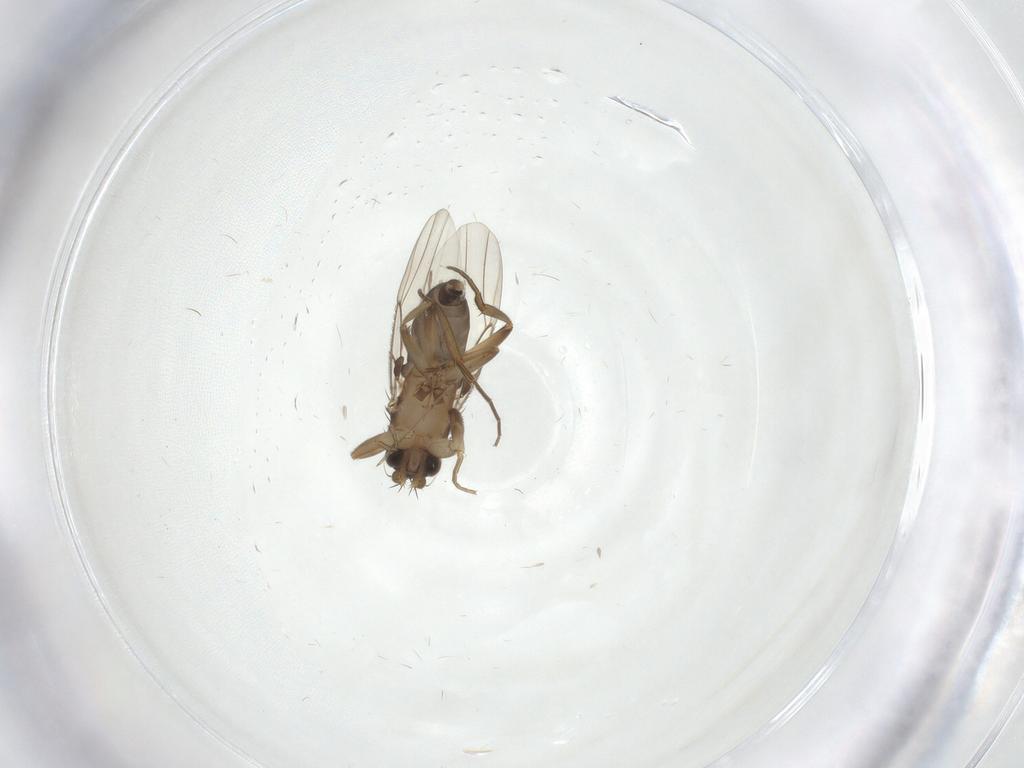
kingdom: Animalia
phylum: Arthropoda
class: Insecta
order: Diptera
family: Phoridae
